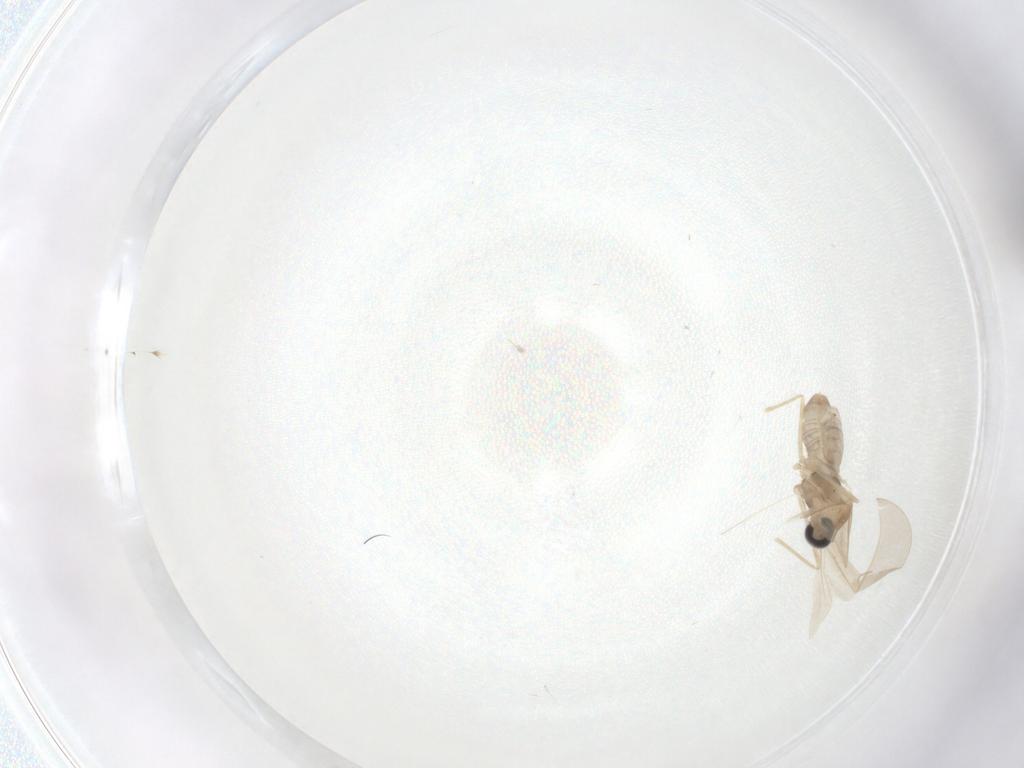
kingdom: Animalia
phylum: Arthropoda
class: Insecta
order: Diptera
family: Cecidomyiidae
